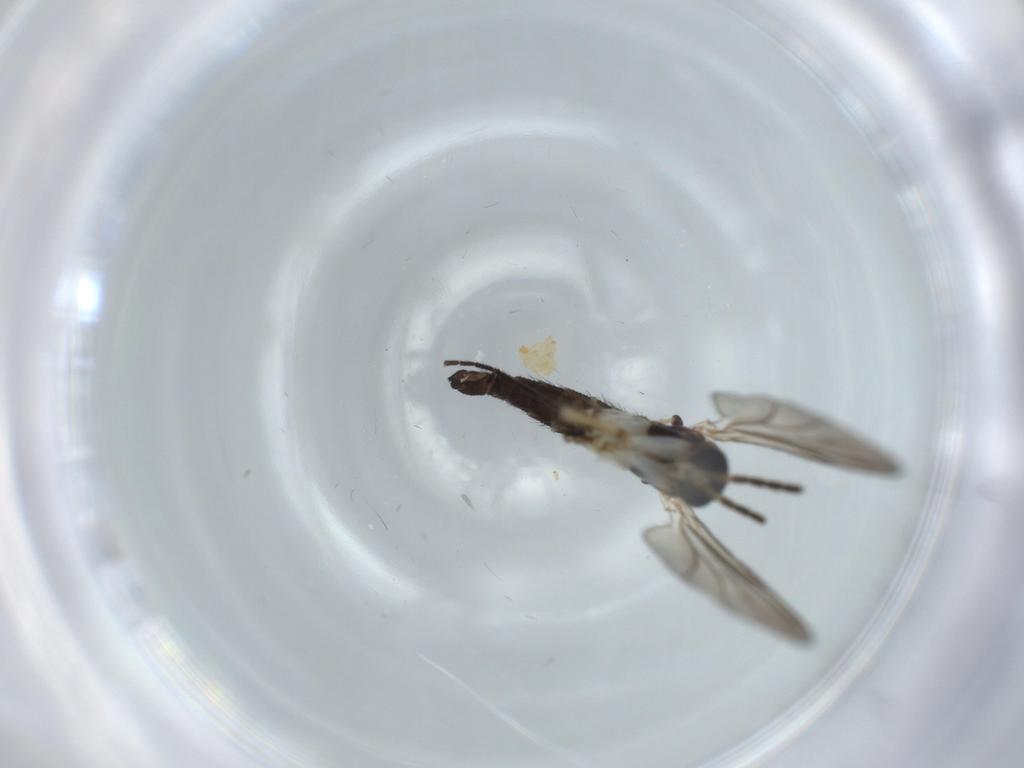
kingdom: Animalia
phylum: Arthropoda
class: Insecta
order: Diptera
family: Sciaridae
